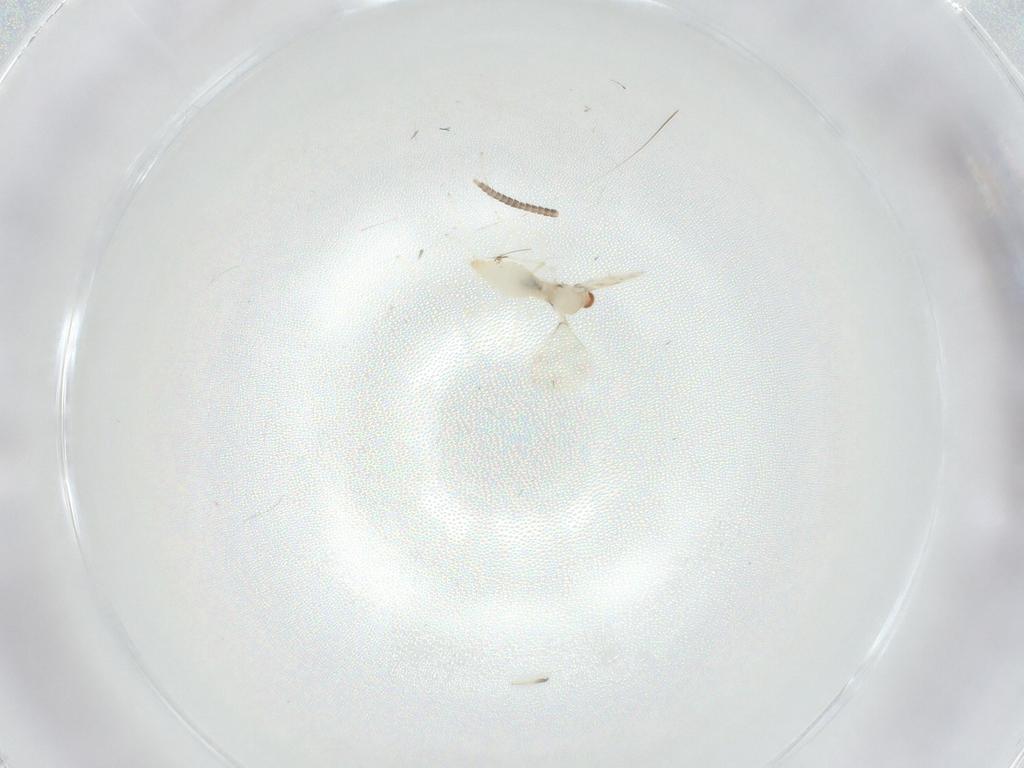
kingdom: Animalia
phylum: Arthropoda
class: Insecta
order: Diptera
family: Cecidomyiidae
